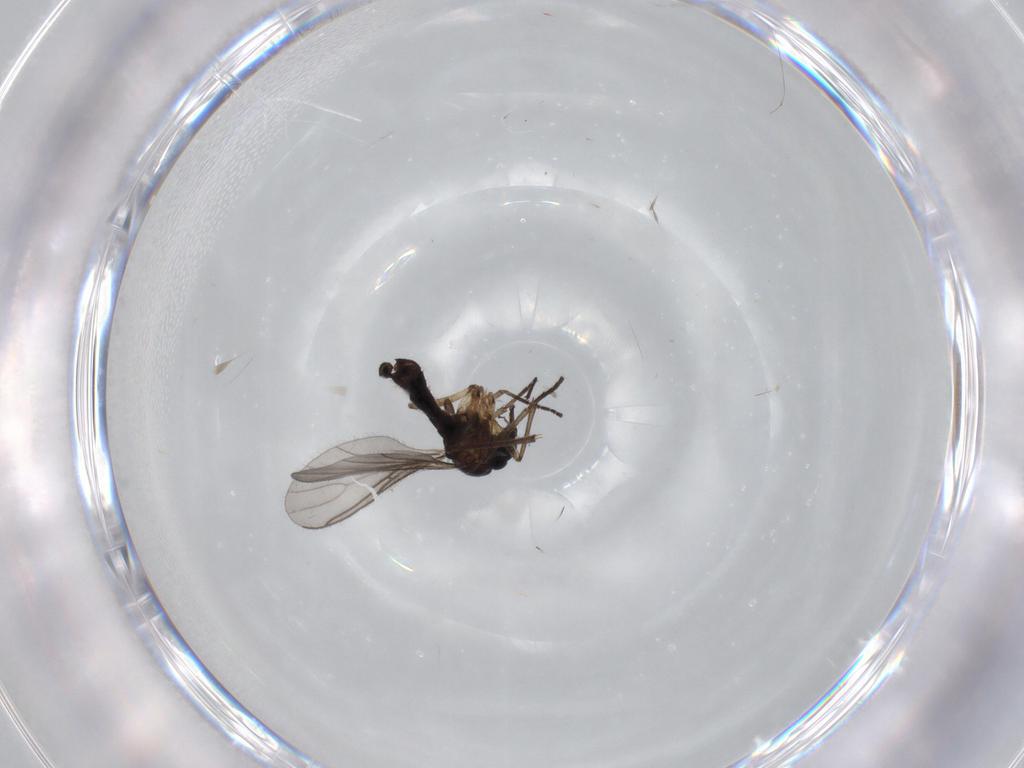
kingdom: Animalia
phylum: Arthropoda
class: Insecta
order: Diptera
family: Sciaridae
